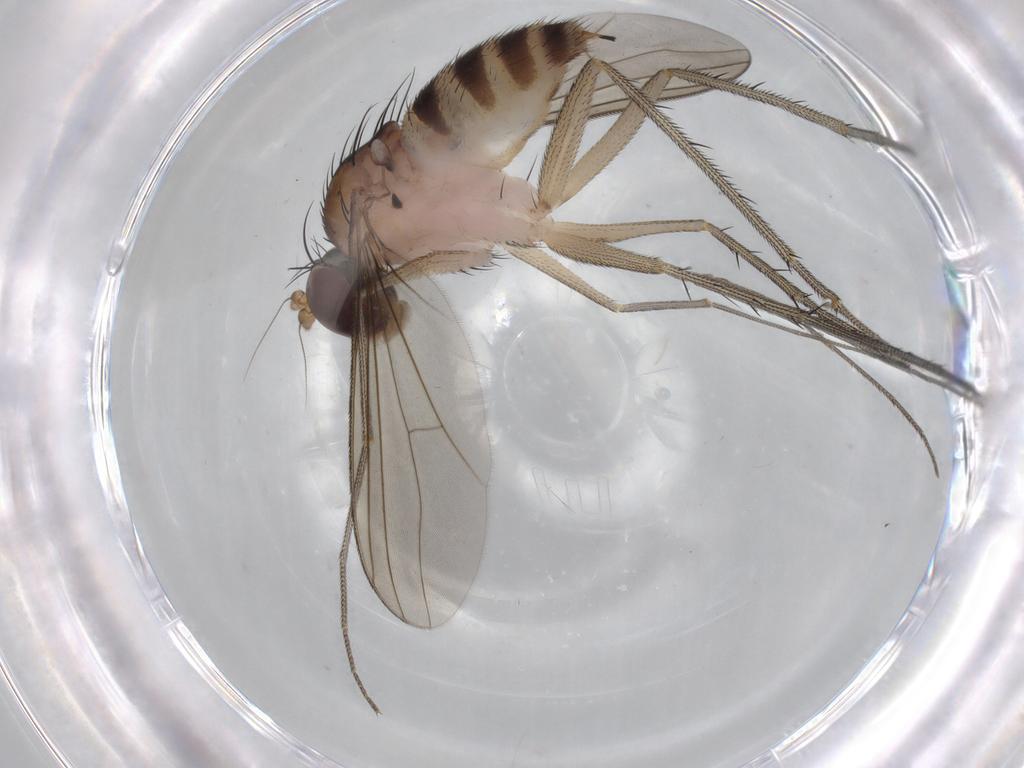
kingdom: Animalia
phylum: Arthropoda
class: Insecta
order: Diptera
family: Dolichopodidae
